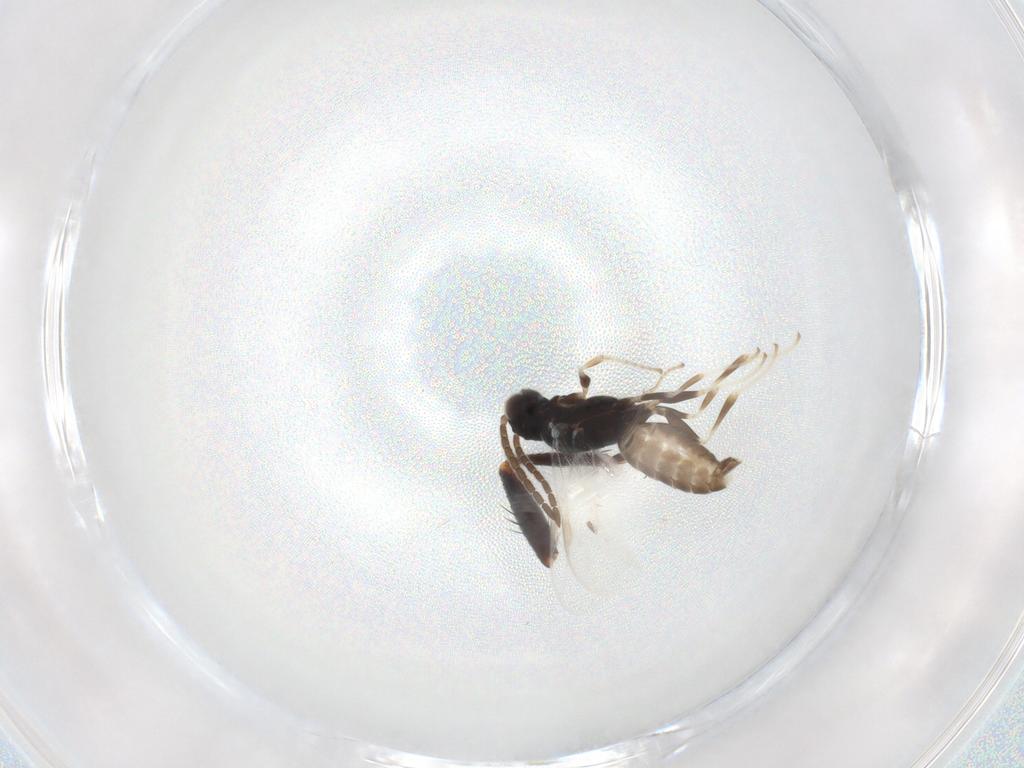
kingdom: Animalia
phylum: Arthropoda
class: Insecta
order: Hymenoptera
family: Dryinidae
